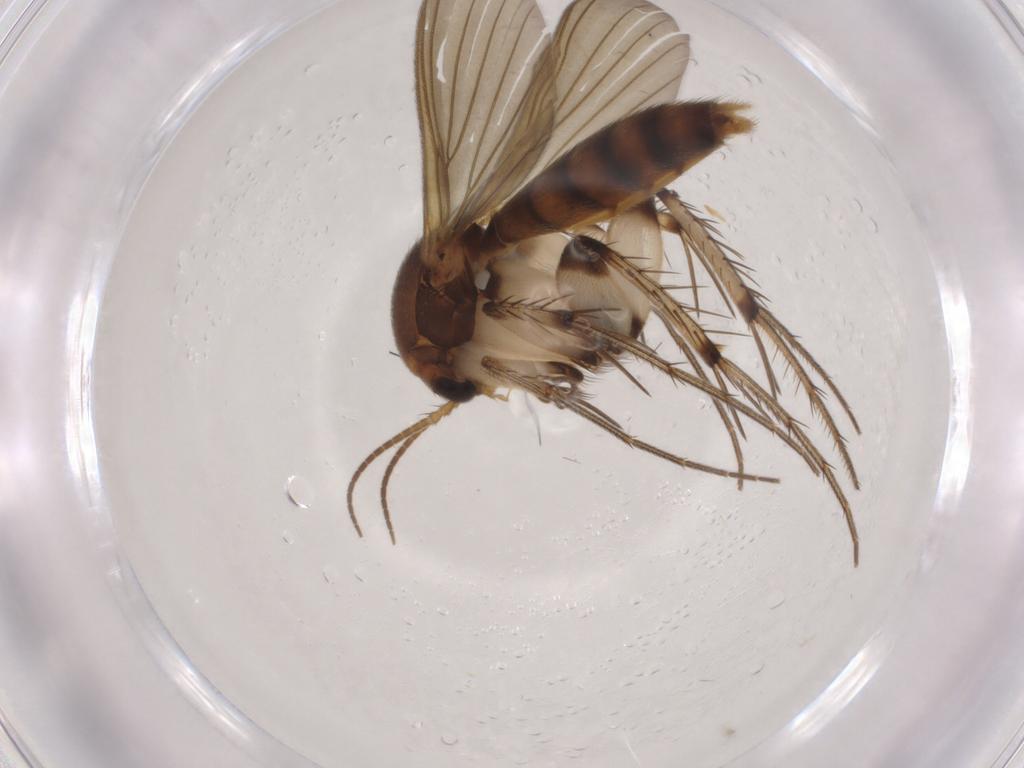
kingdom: Animalia
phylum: Arthropoda
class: Insecta
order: Diptera
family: Mycetophilidae
